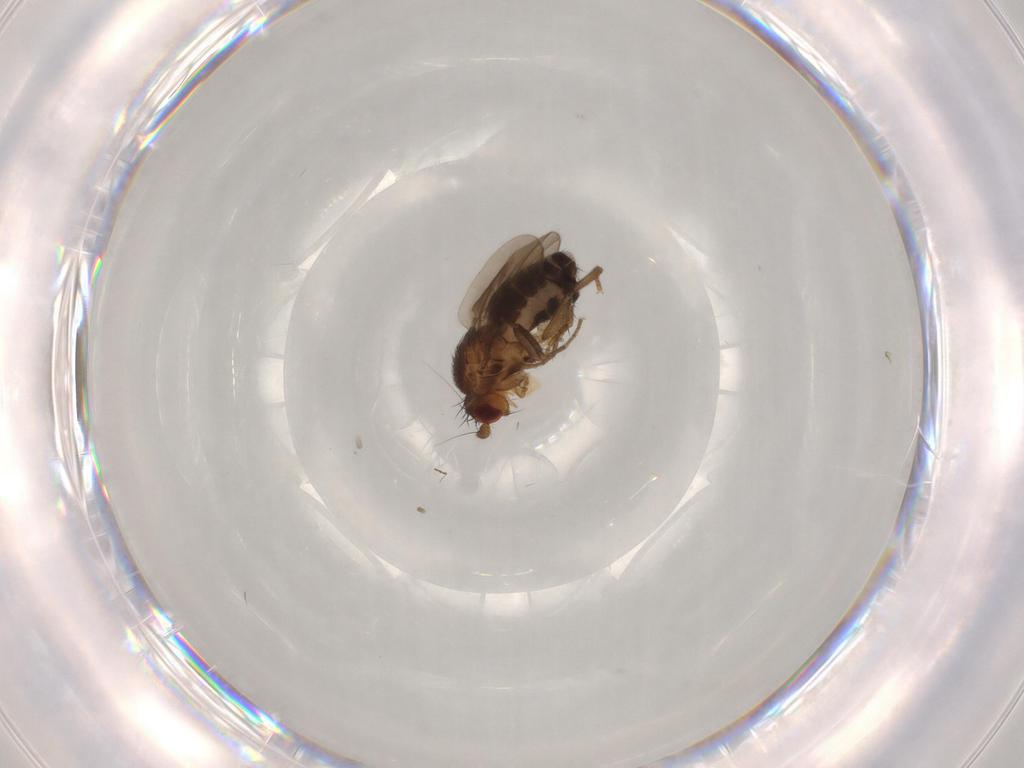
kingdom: Animalia
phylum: Arthropoda
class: Insecta
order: Diptera
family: Sphaeroceridae
